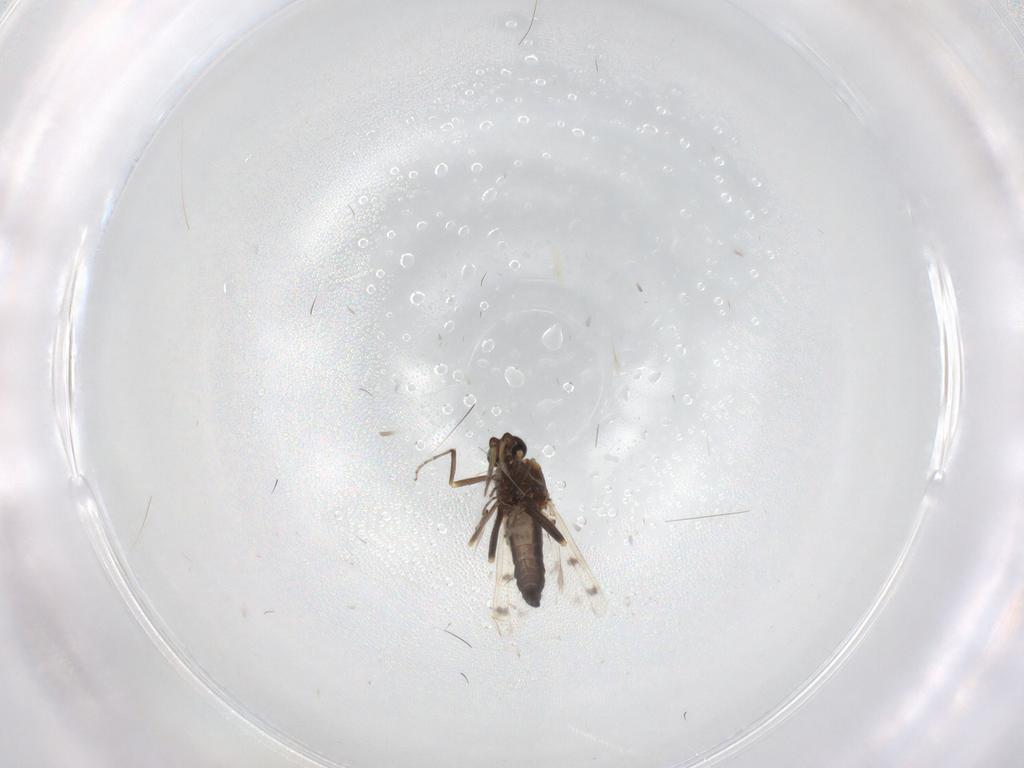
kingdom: Animalia
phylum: Arthropoda
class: Insecta
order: Diptera
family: Ceratopogonidae
